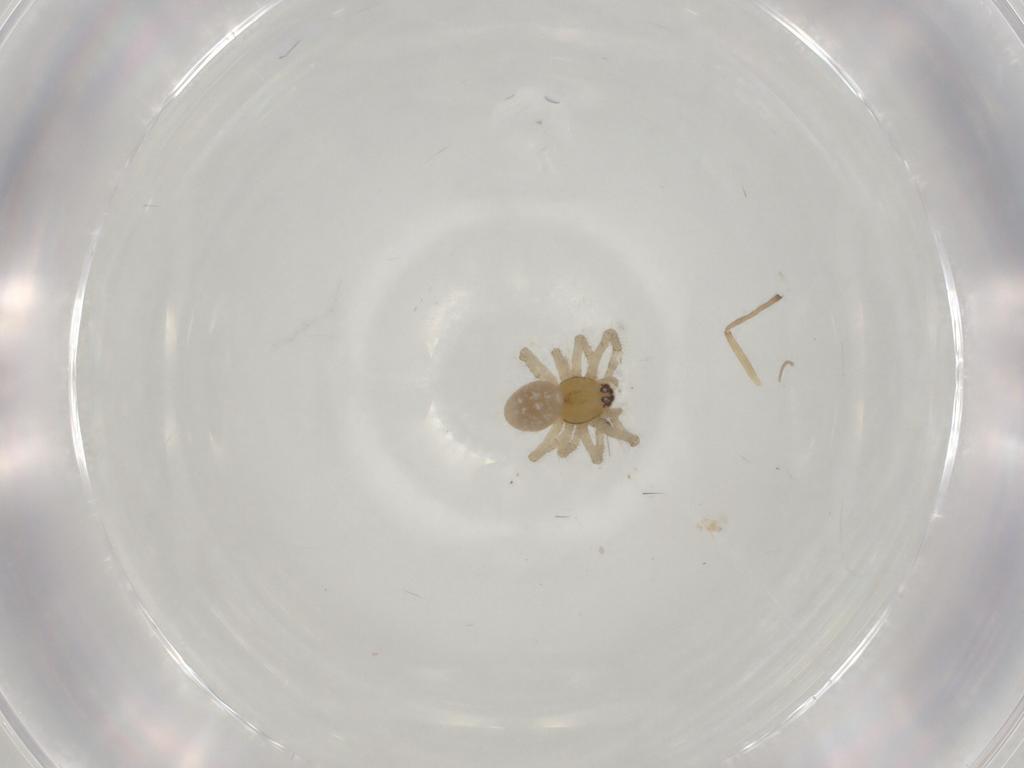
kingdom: Animalia
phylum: Arthropoda
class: Arachnida
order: Araneae
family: Theridiidae
